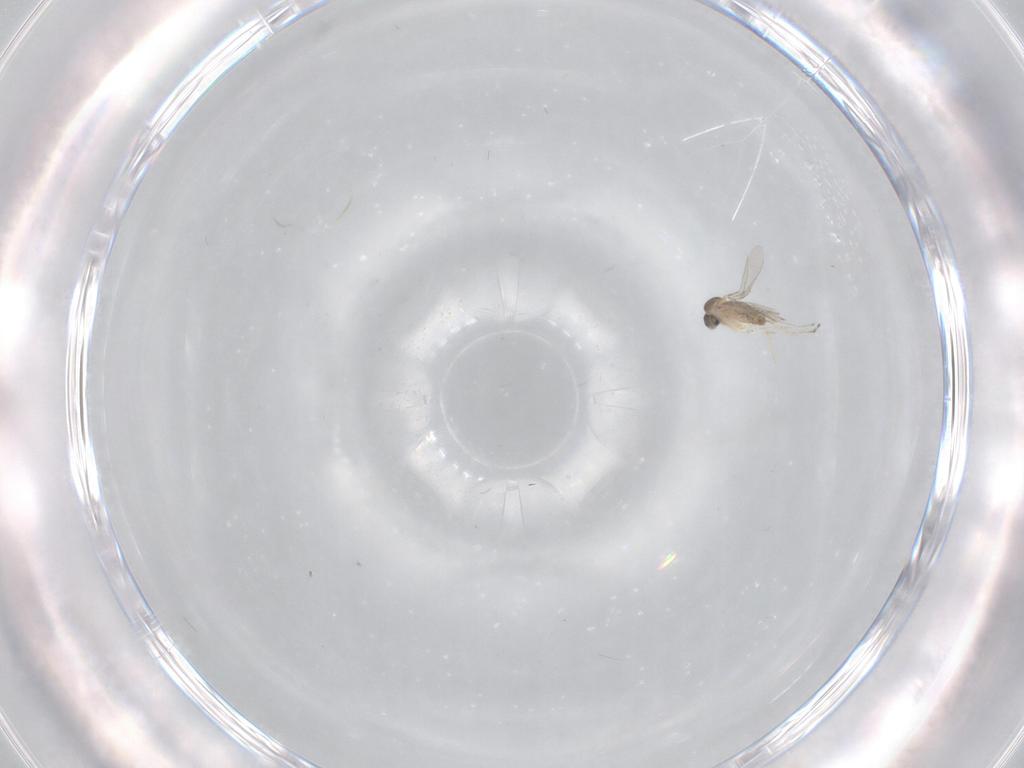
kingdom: Animalia
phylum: Arthropoda
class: Insecta
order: Diptera
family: Cecidomyiidae
